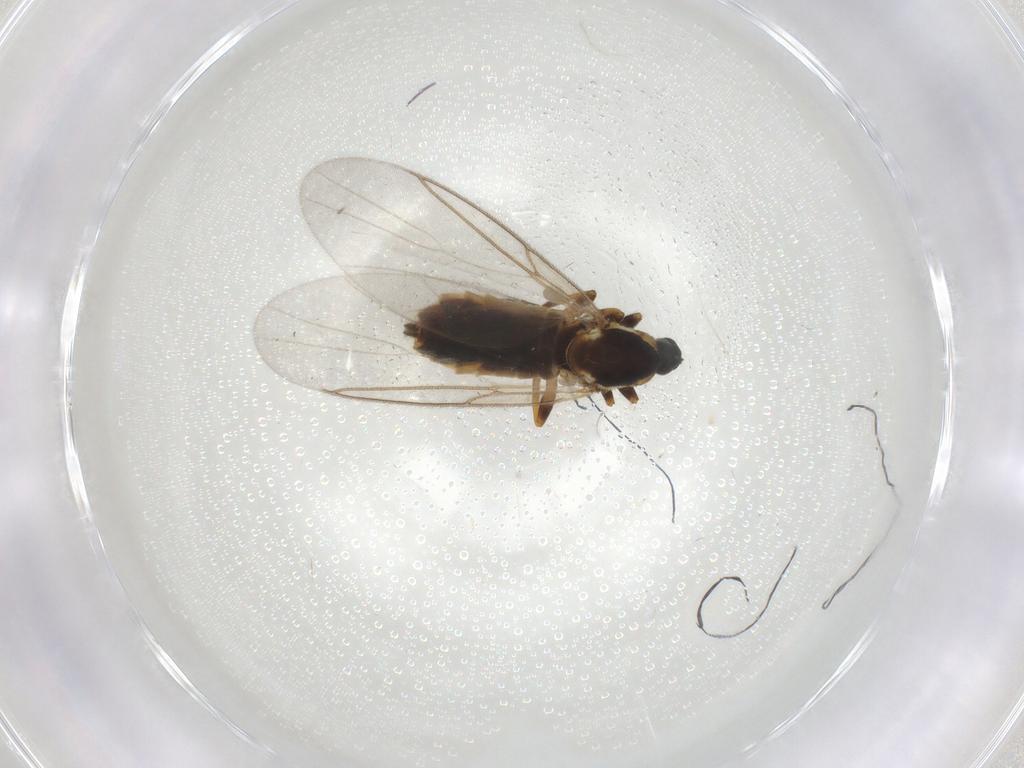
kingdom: Animalia
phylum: Arthropoda
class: Insecta
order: Diptera
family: Scatopsidae
